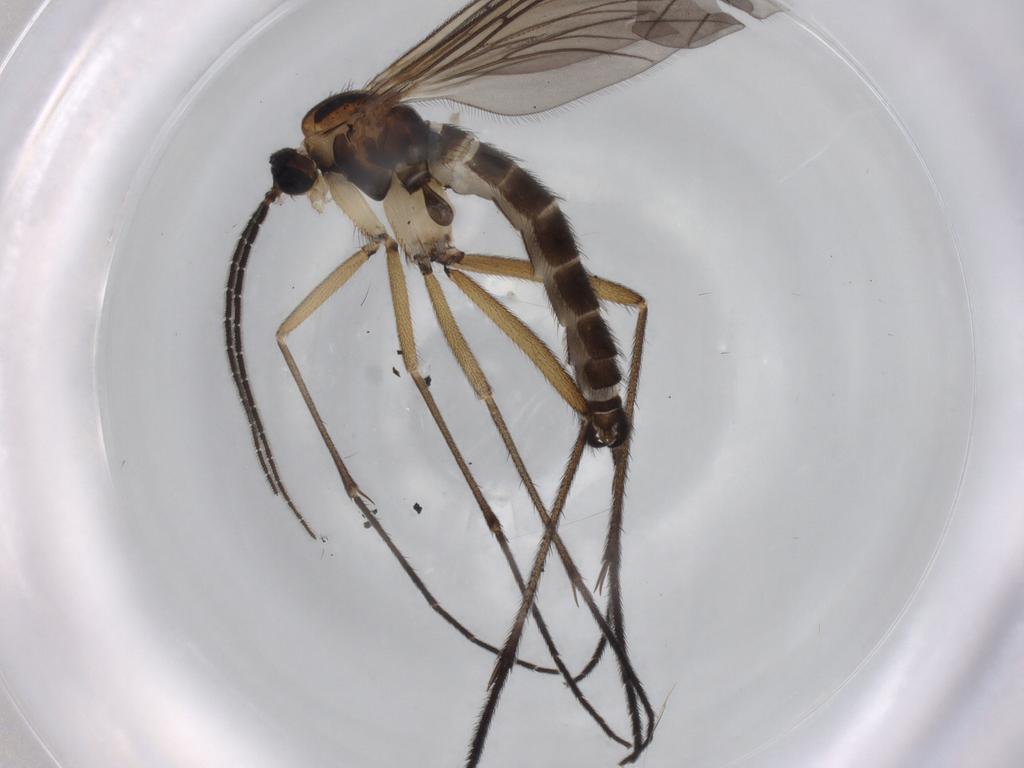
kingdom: Animalia
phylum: Arthropoda
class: Insecta
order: Diptera
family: Sciaridae
